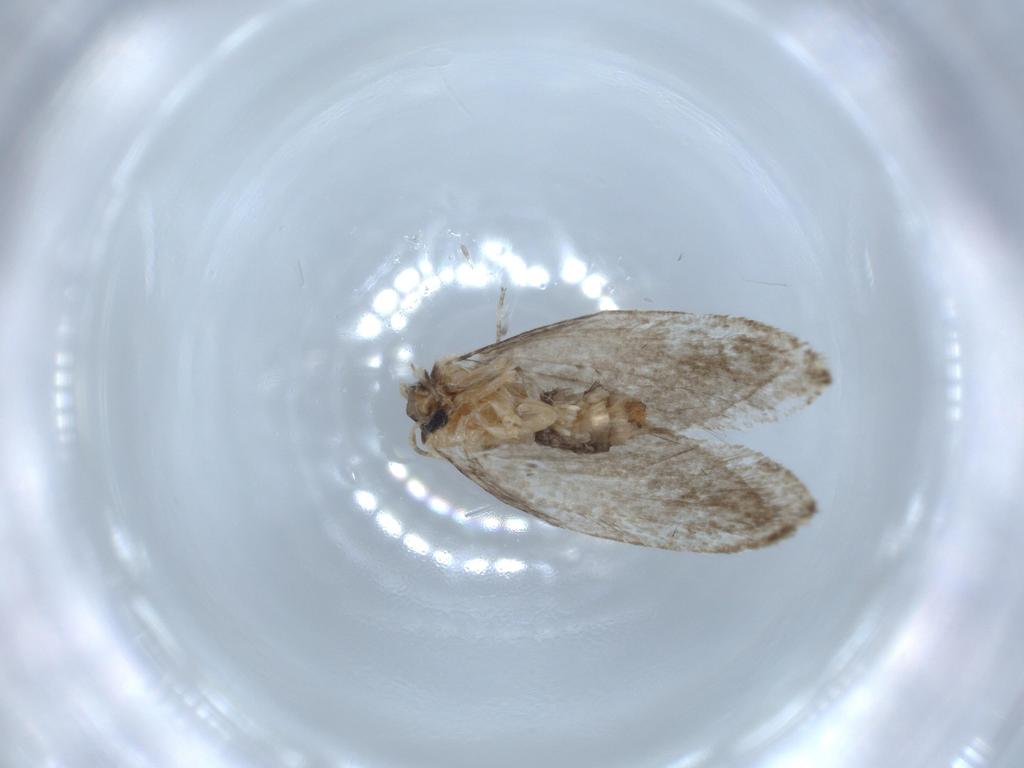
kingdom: Animalia
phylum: Arthropoda
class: Insecta
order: Lepidoptera
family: Tineidae
